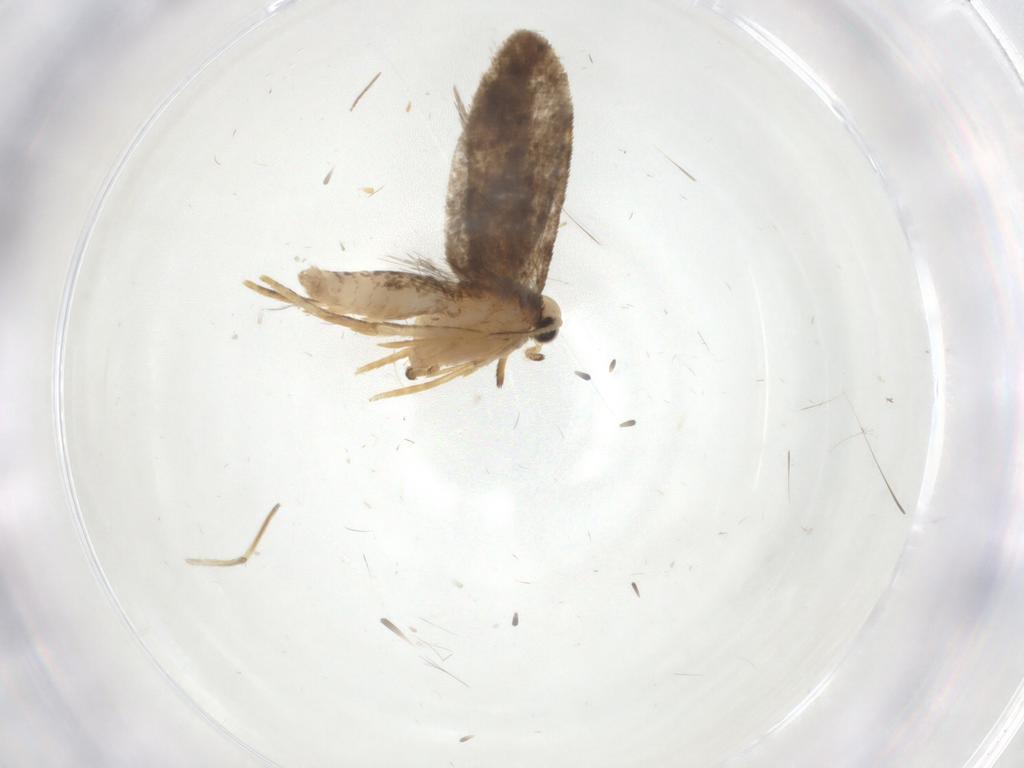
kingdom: Animalia
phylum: Arthropoda
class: Insecta
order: Lepidoptera
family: Psychidae
